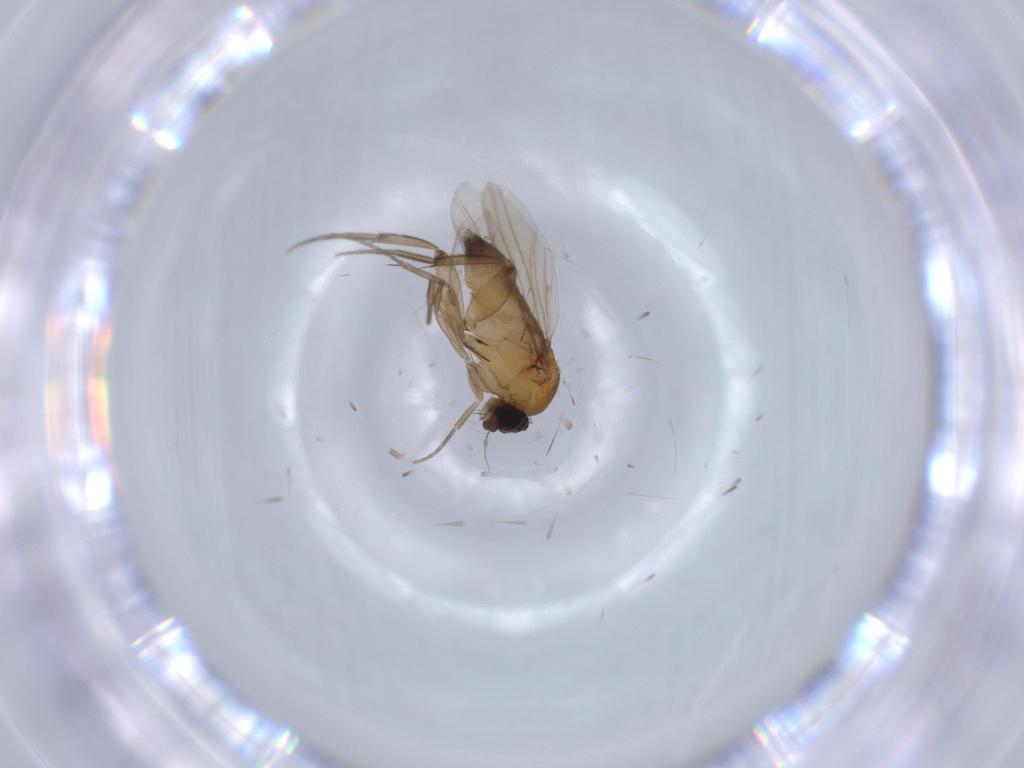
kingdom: Animalia
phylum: Arthropoda
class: Insecta
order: Diptera
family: Phoridae
